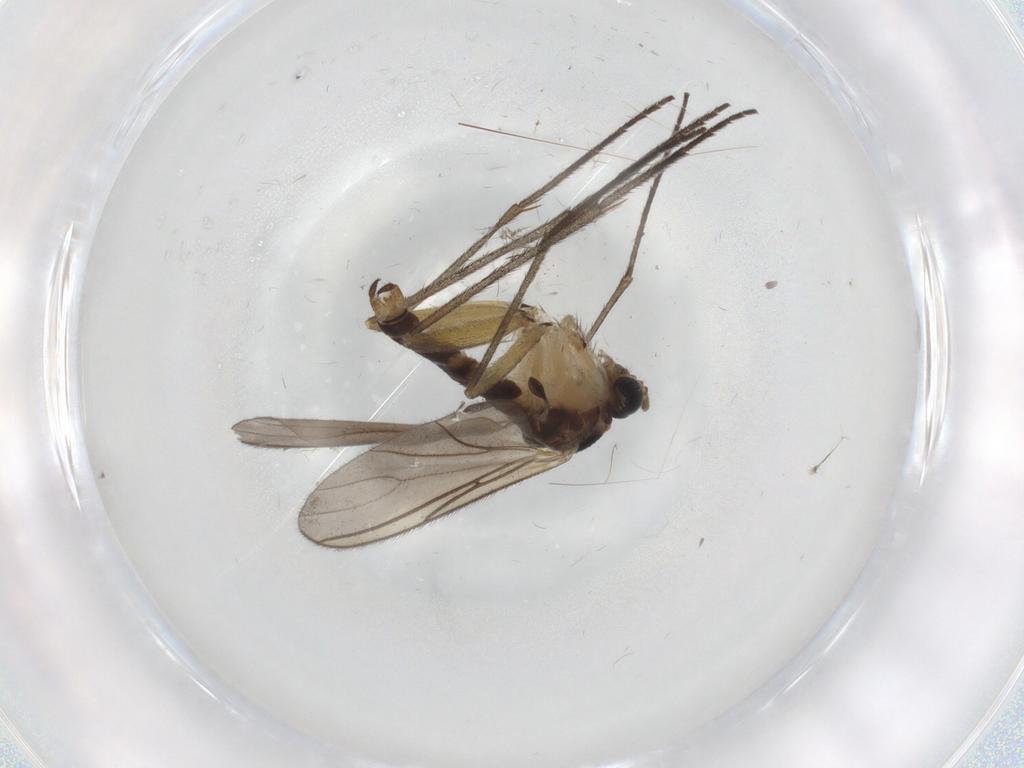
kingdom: Animalia
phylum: Arthropoda
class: Insecta
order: Diptera
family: Sciaridae
